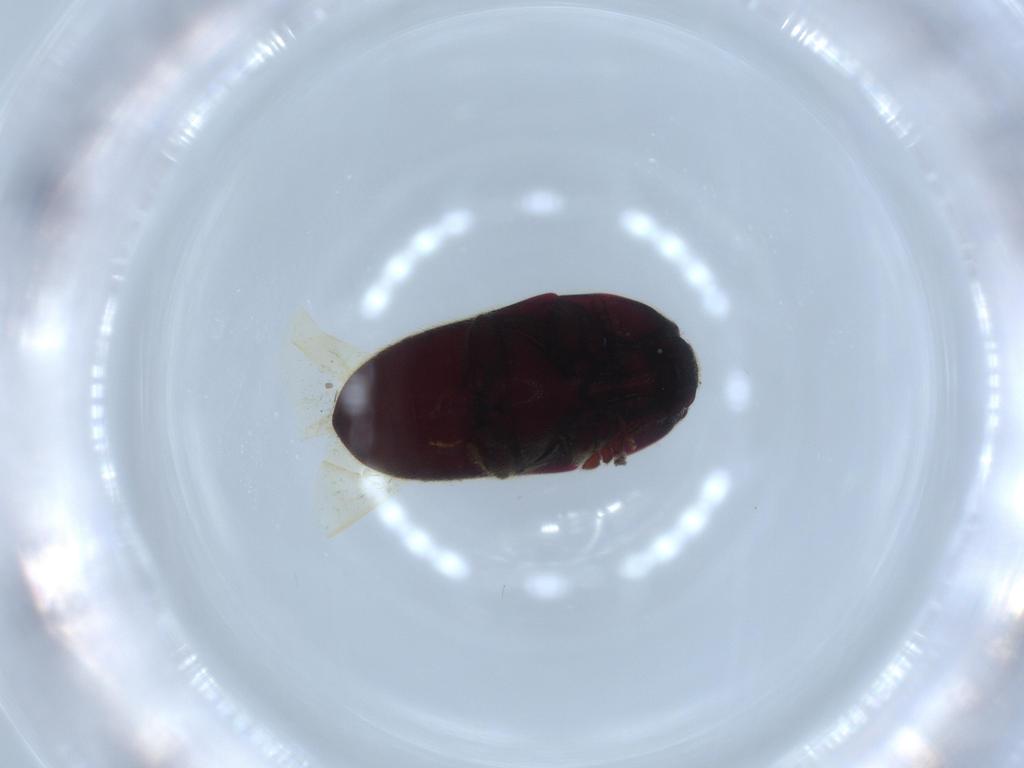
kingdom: Animalia
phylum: Arthropoda
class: Insecta
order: Coleoptera
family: Throscidae
